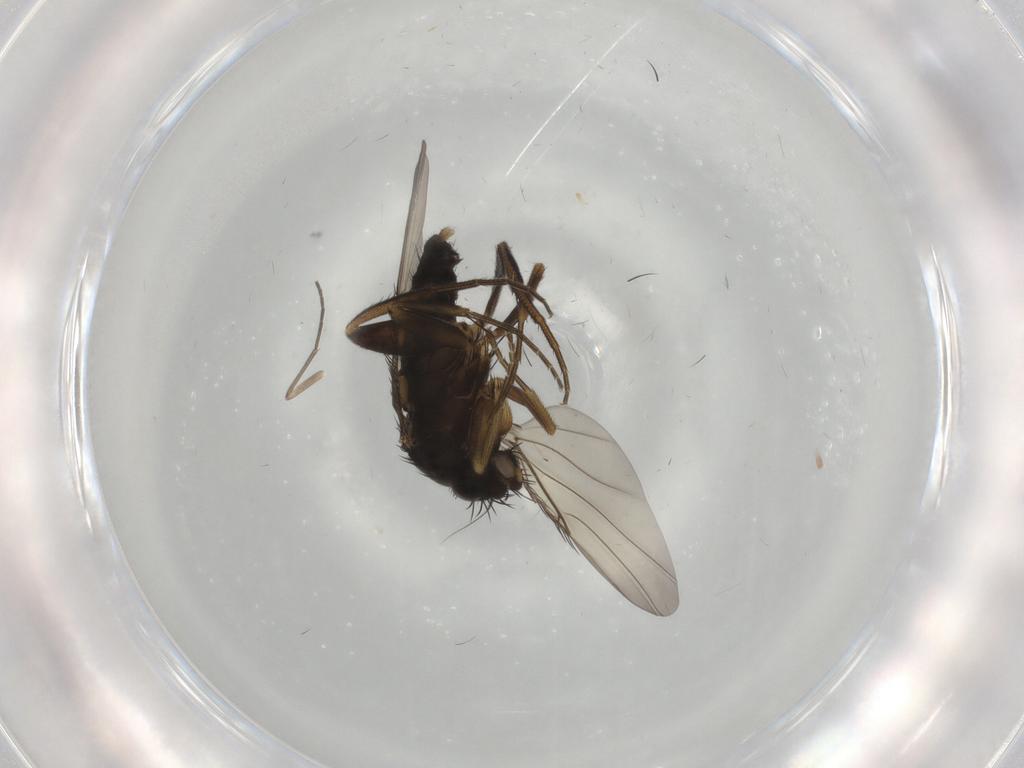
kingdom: Animalia
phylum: Arthropoda
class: Insecta
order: Diptera
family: Phoridae
